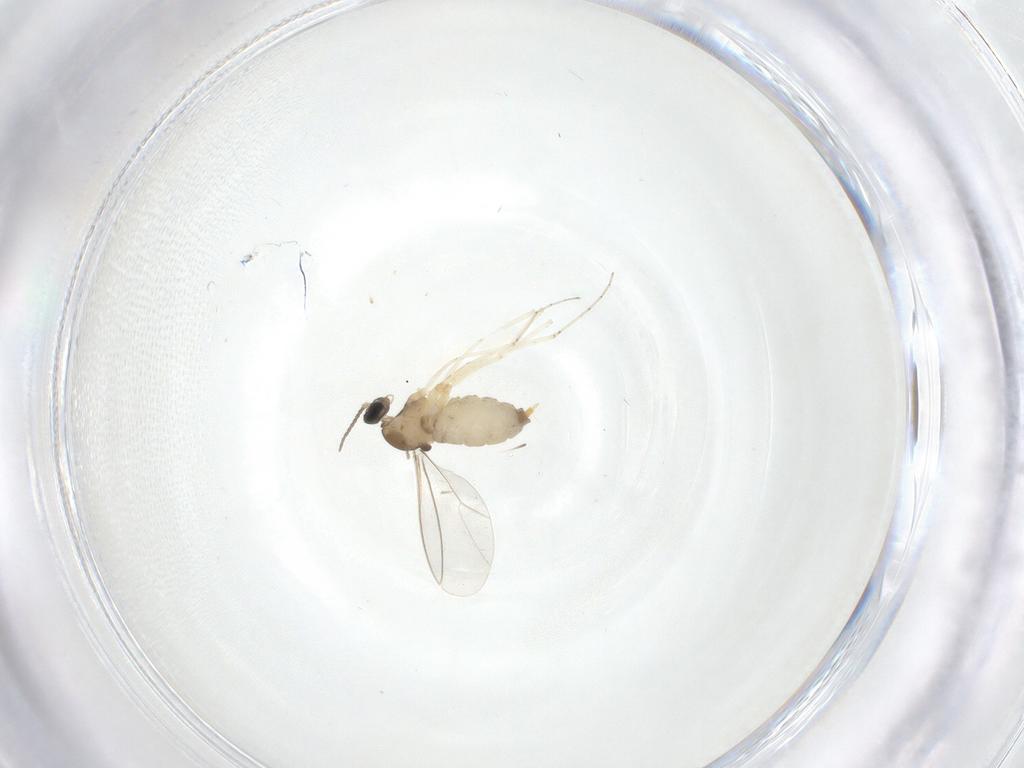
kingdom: Animalia
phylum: Arthropoda
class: Insecta
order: Diptera
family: Cecidomyiidae
